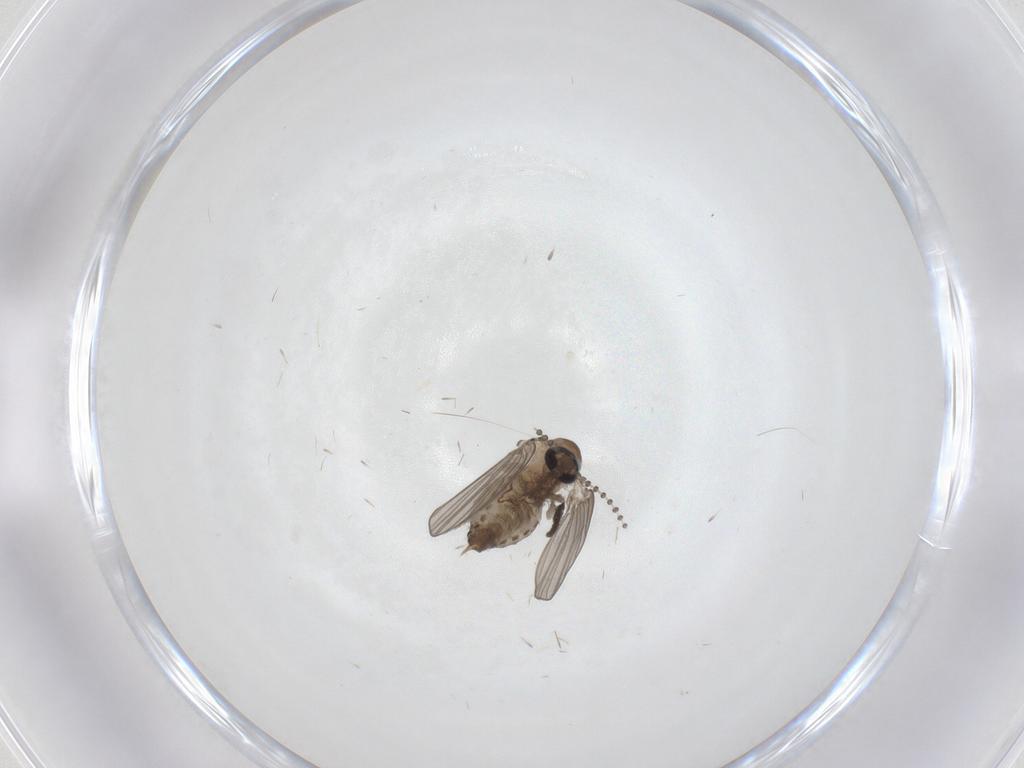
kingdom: Animalia
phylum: Arthropoda
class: Insecta
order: Diptera
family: Psychodidae
